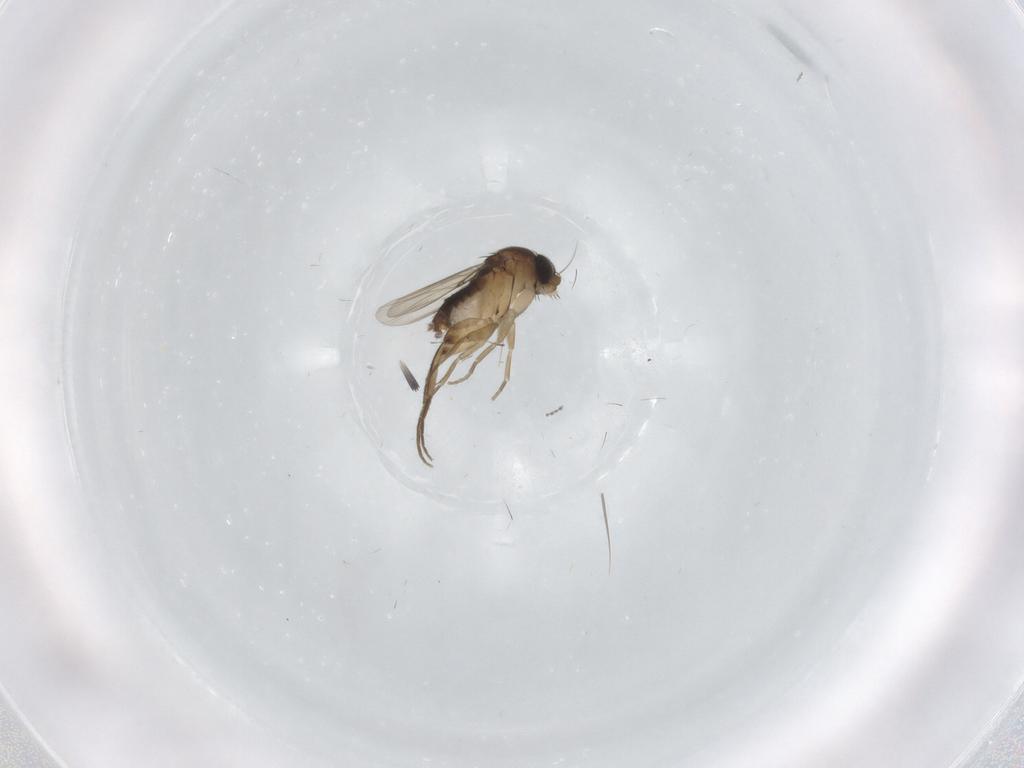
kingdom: Animalia
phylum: Arthropoda
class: Insecta
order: Diptera
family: Phoridae
